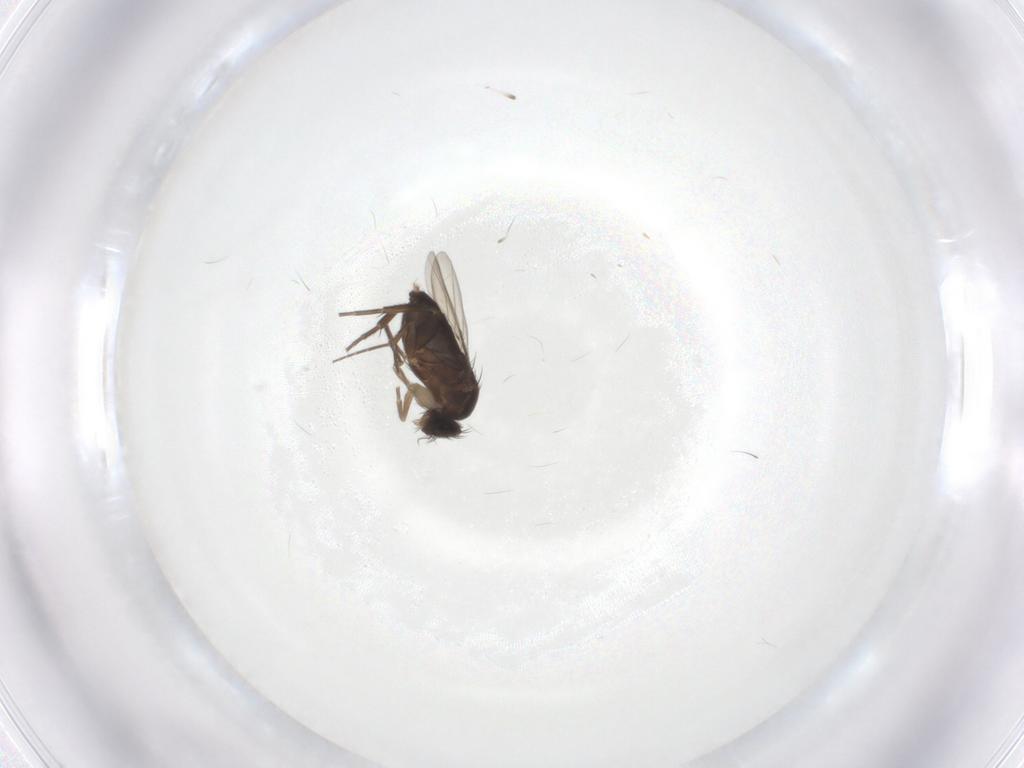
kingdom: Animalia
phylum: Arthropoda
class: Insecta
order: Diptera
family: Phoridae
